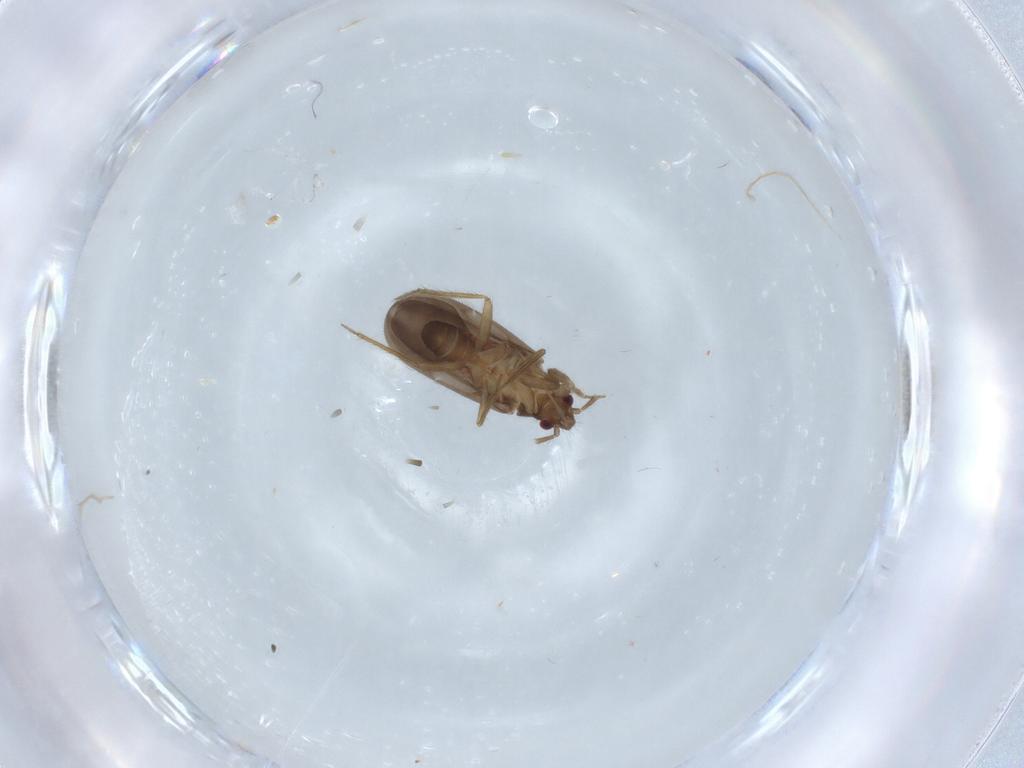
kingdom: Animalia
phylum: Arthropoda
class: Insecta
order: Hemiptera
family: Ceratocombidae
